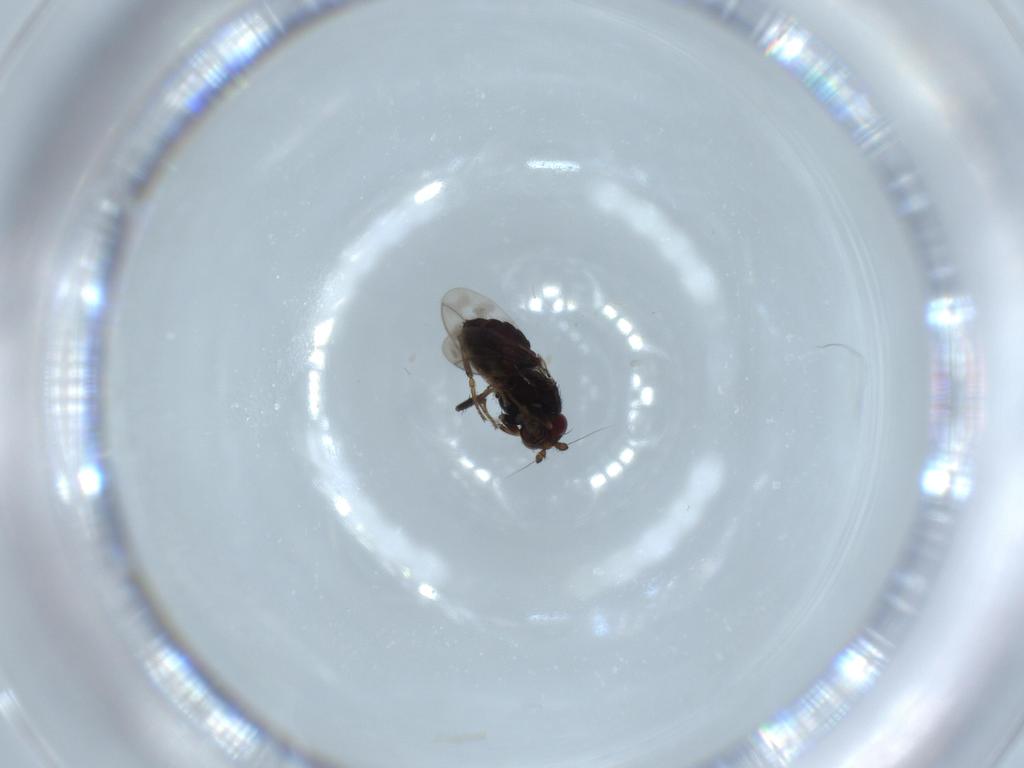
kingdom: Animalia
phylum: Arthropoda
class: Insecta
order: Diptera
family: Sphaeroceridae
